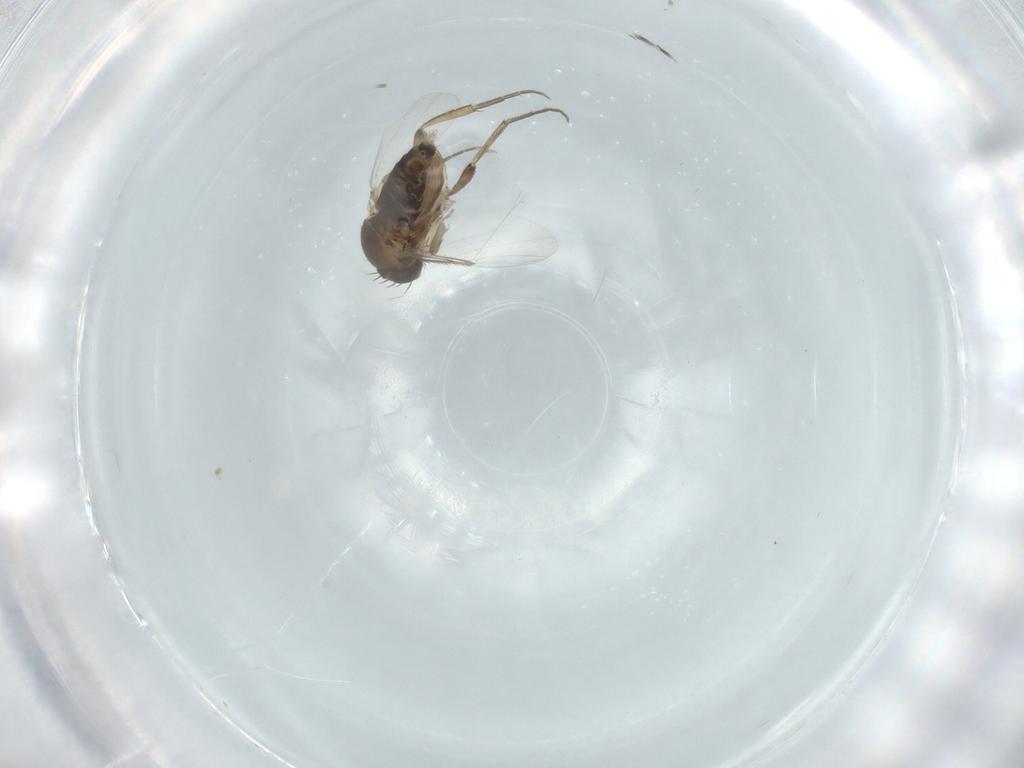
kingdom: Animalia
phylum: Arthropoda
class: Insecta
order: Diptera
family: Phoridae
